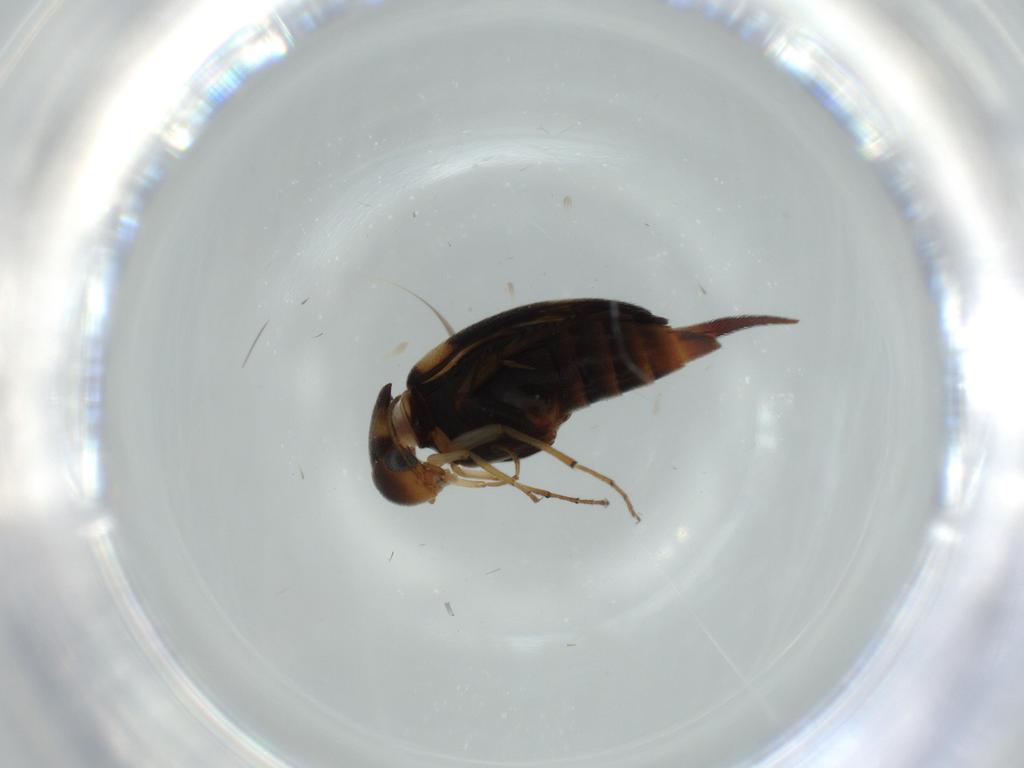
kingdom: Animalia
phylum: Arthropoda
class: Insecta
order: Coleoptera
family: Mordellidae
